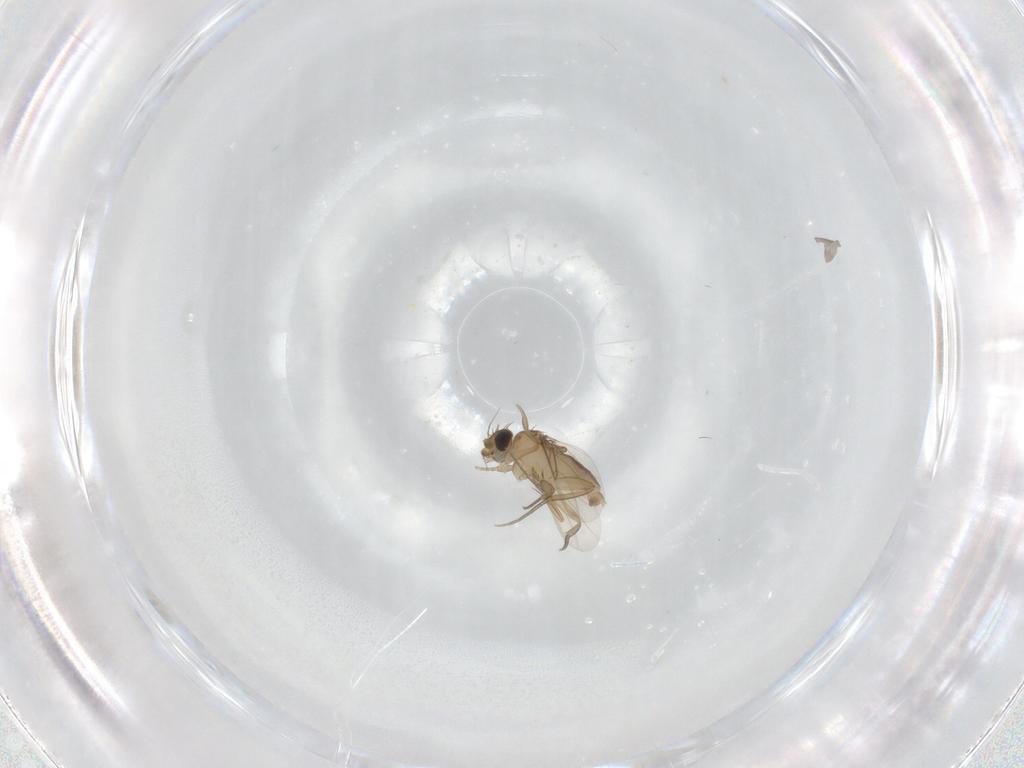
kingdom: Animalia
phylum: Arthropoda
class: Insecta
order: Diptera
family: Phoridae
